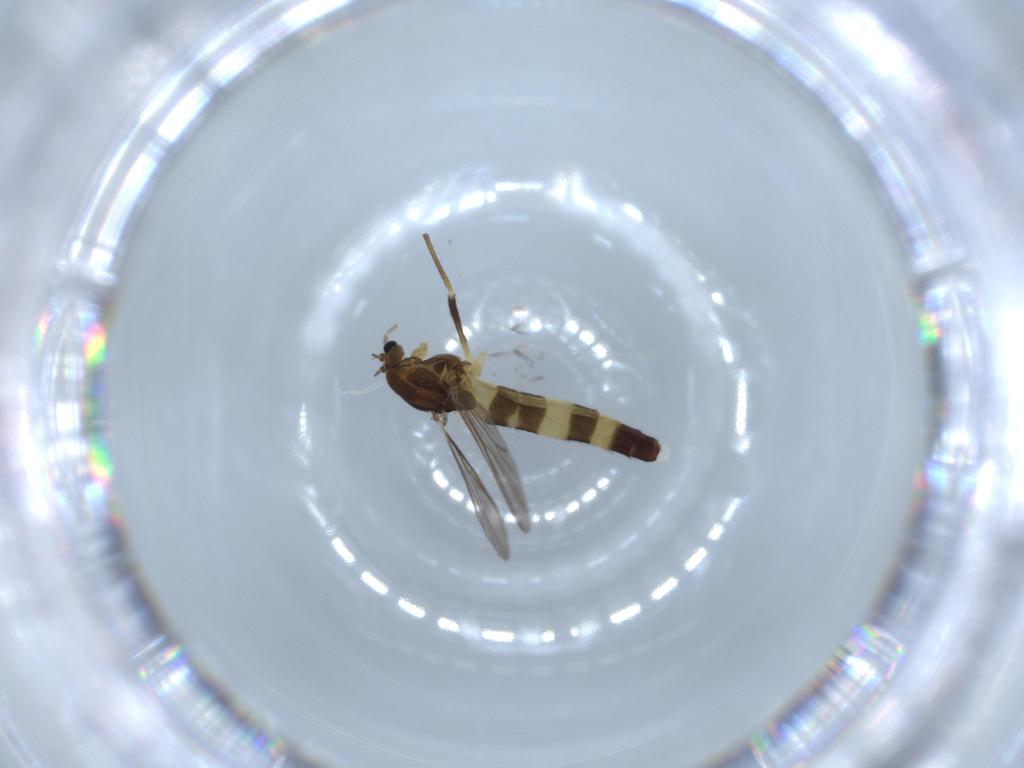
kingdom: Animalia
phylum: Arthropoda
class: Insecta
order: Diptera
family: Chironomidae
